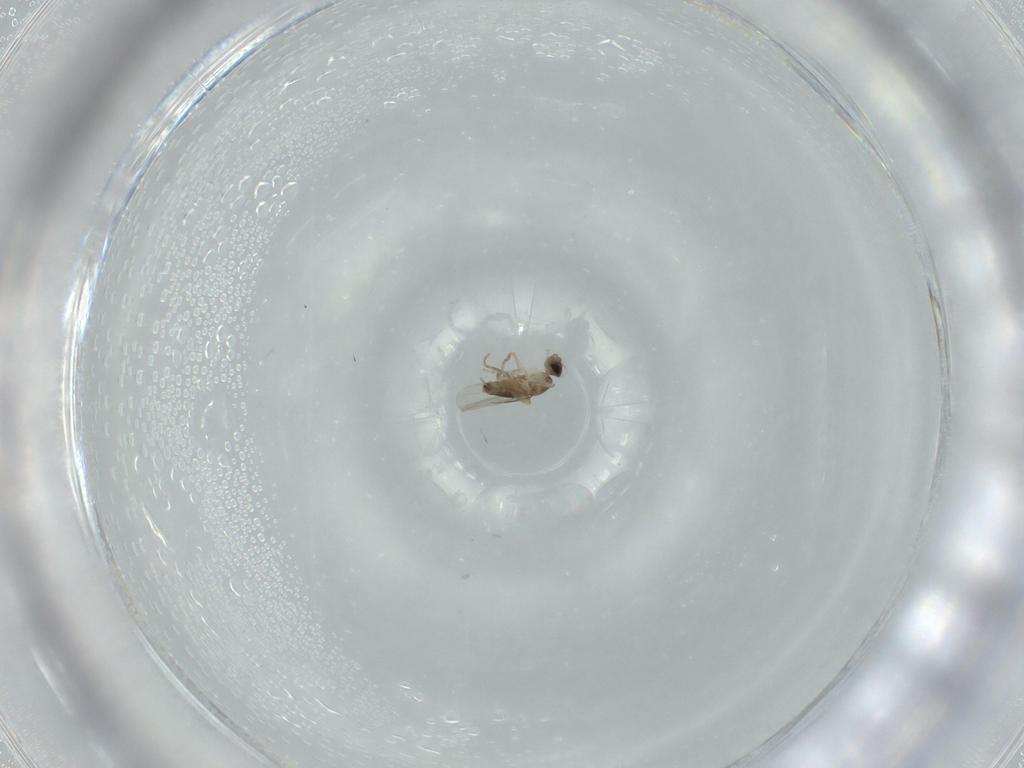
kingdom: Animalia
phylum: Arthropoda
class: Insecta
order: Diptera
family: Phoridae
